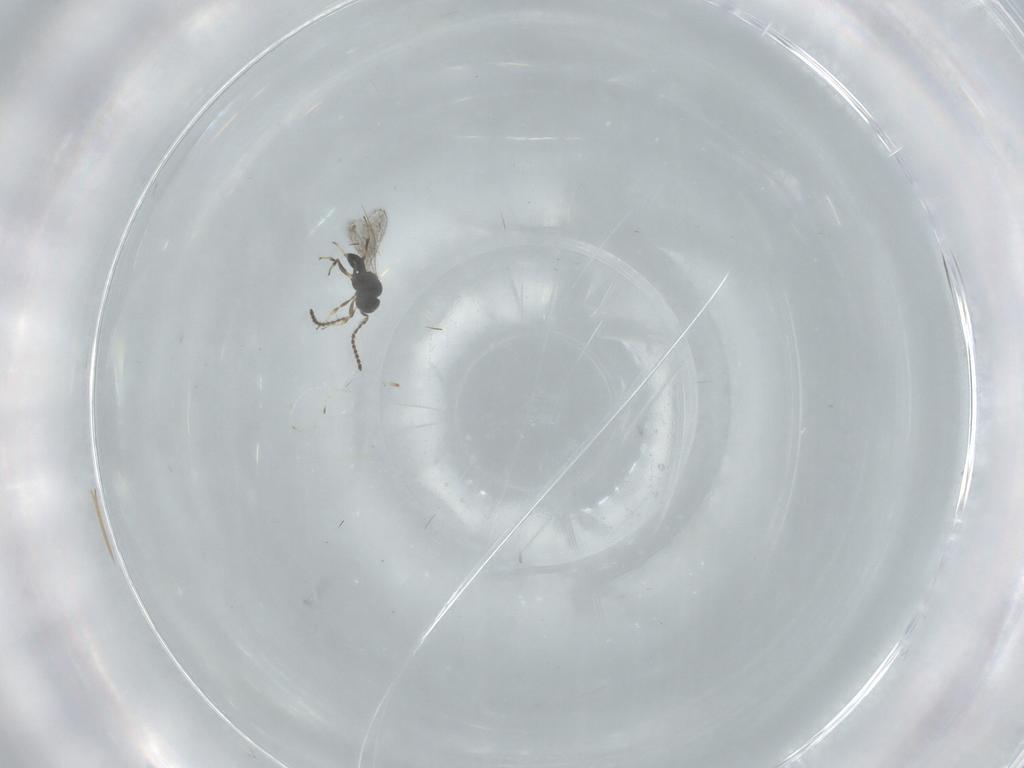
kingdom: Animalia
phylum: Arthropoda
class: Insecta
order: Hymenoptera
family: Scelionidae
